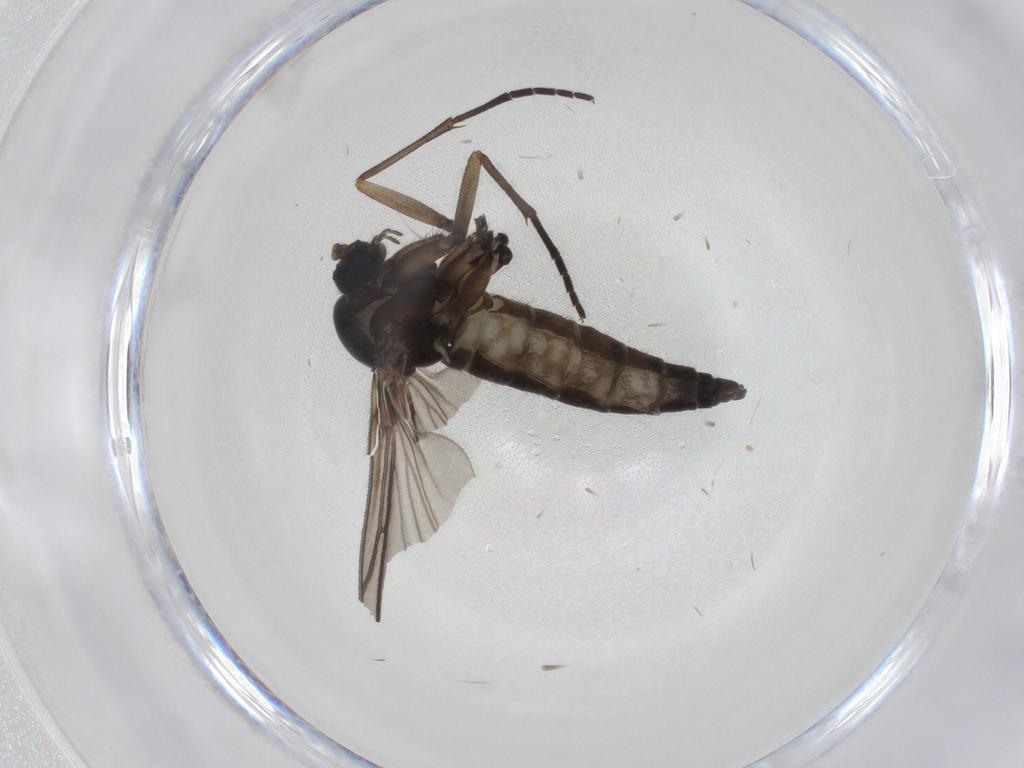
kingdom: Animalia
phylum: Arthropoda
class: Insecta
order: Diptera
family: Sciaridae
